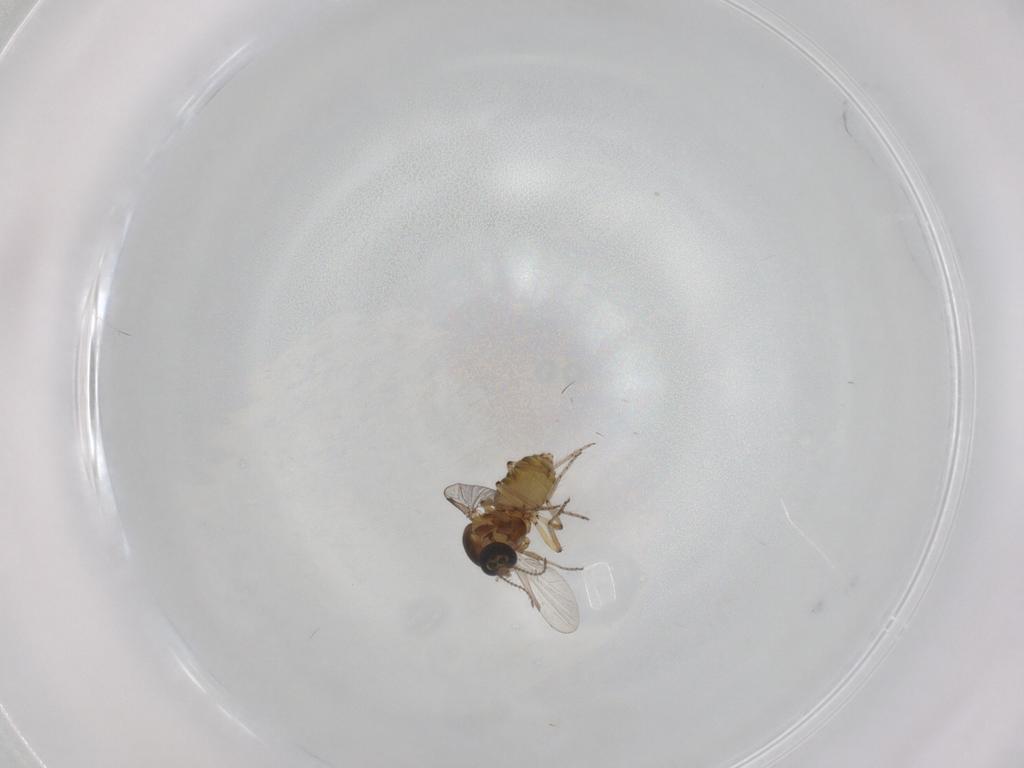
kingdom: Animalia
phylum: Arthropoda
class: Insecta
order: Diptera
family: Ceratopogonidae
